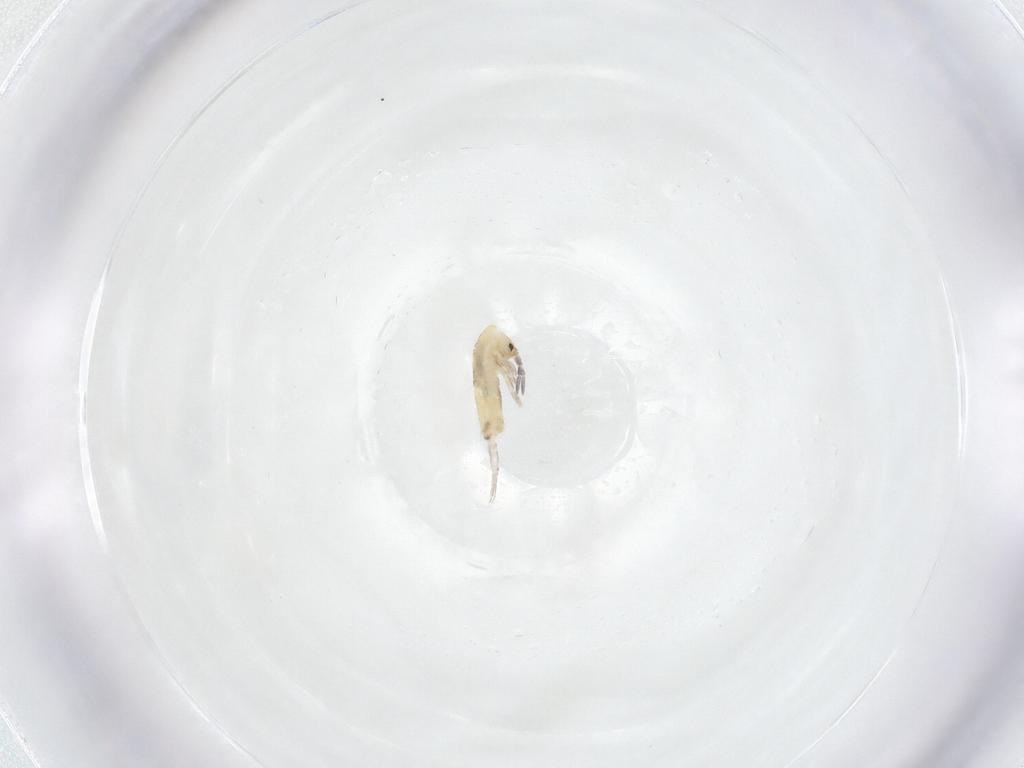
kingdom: Animalia
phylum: Arthropoda
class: Collembola
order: Entomobryomorpha
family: Entomobryidae
